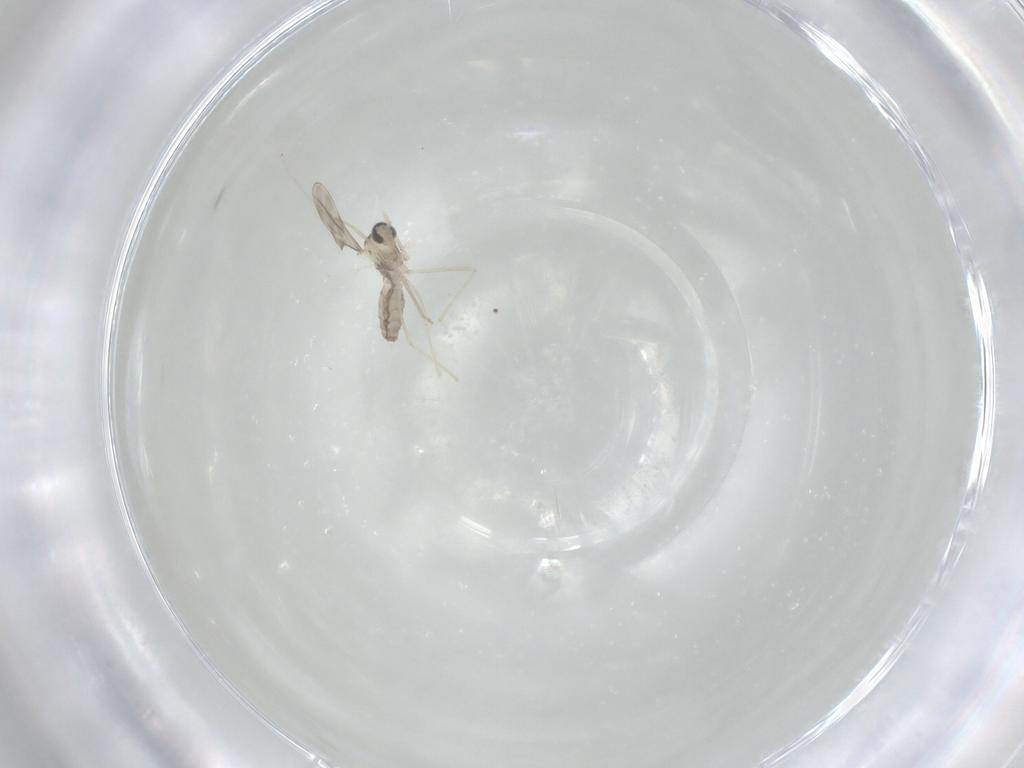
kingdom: Animalia
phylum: Arthropoda
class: Insecta
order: Diptera
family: Cecidomyiidae
